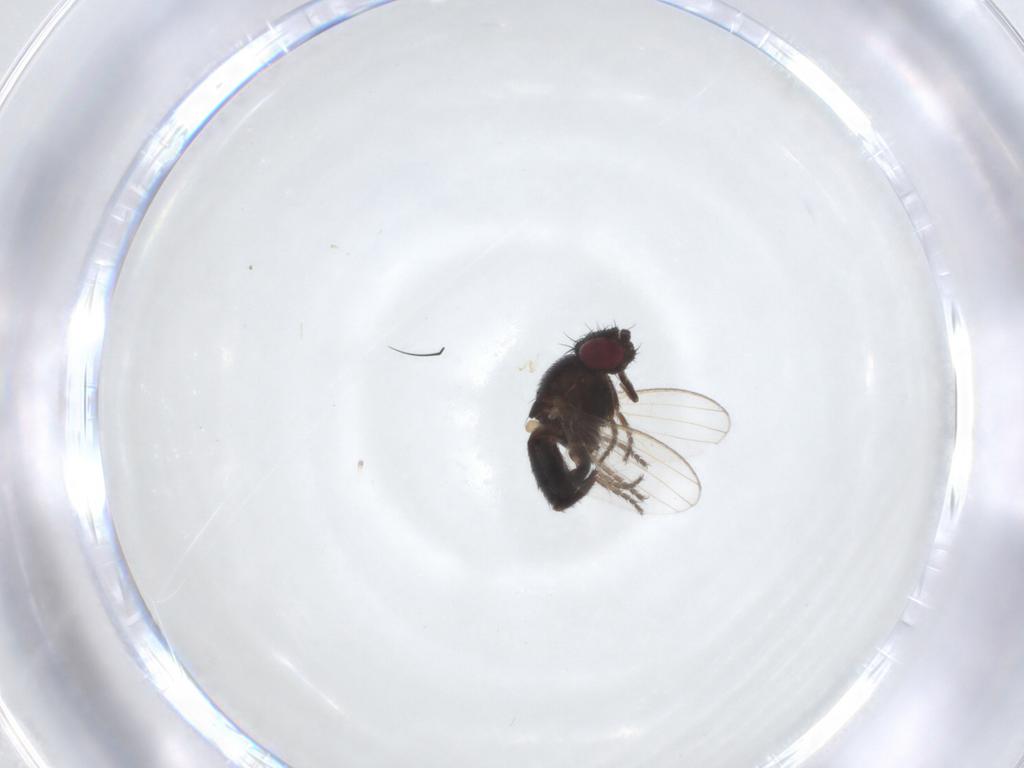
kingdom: Animalia
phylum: Arthropoda
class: Insecta
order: Diptera
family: Milichiidae
